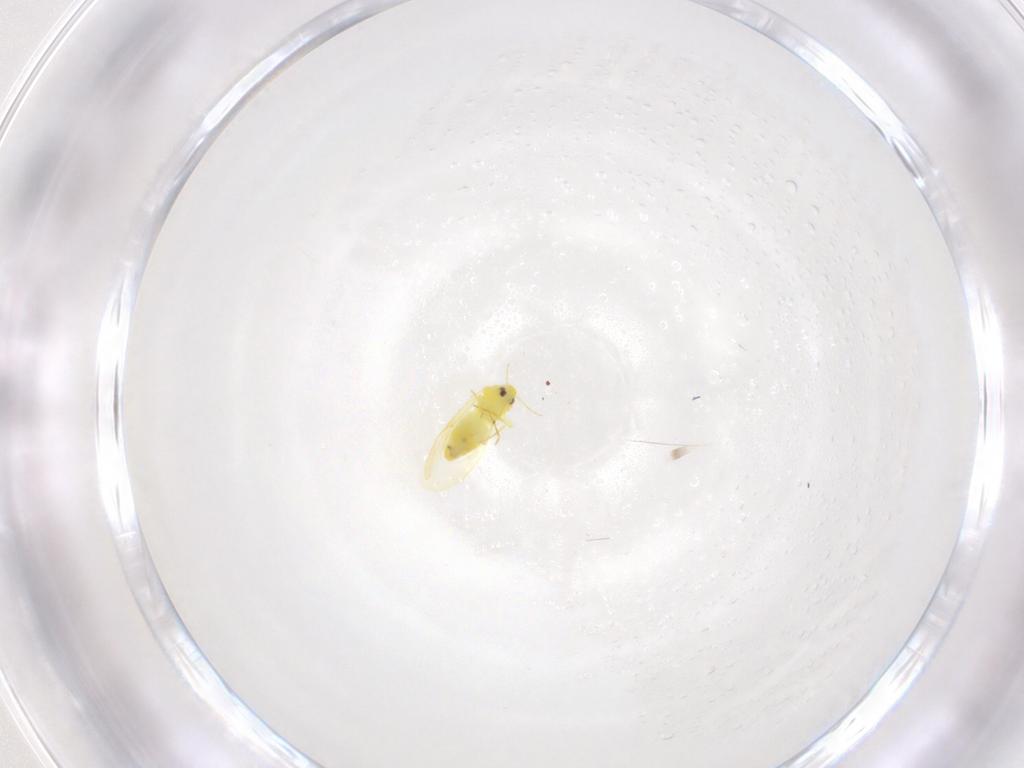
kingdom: Animalia
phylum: Arthropoda
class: Insecta
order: Hemiptera
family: Aleyrodidae
